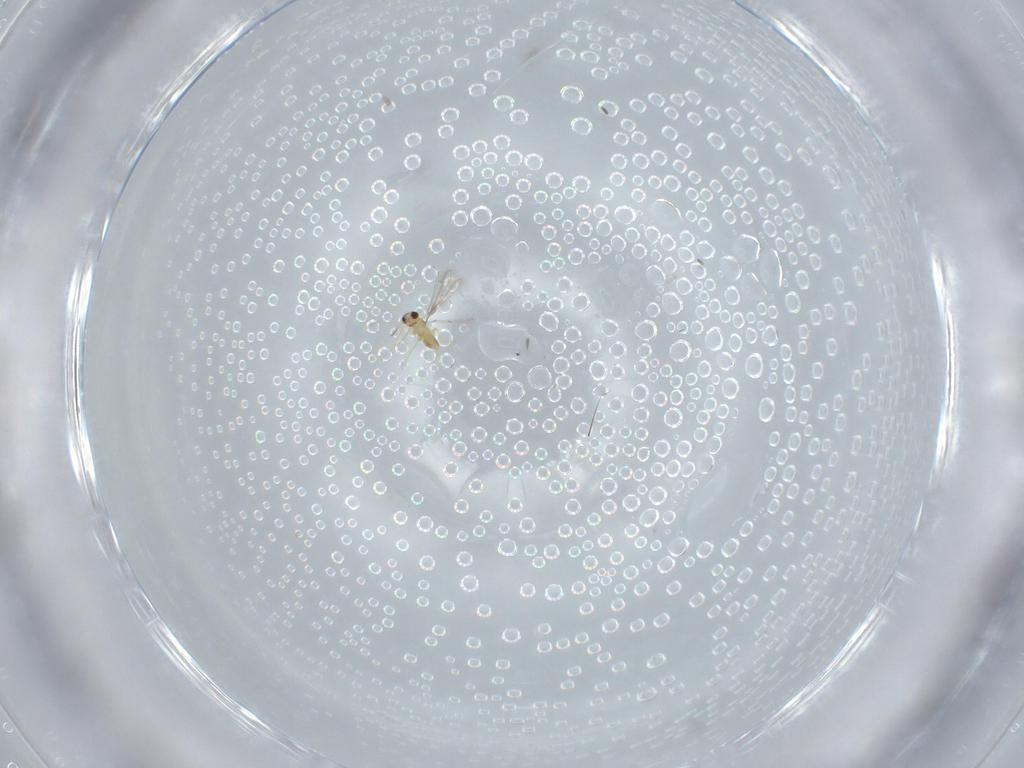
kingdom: Animalia
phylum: Arthropoda
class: Insecta
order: Hymenoptera
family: Mymaridae
